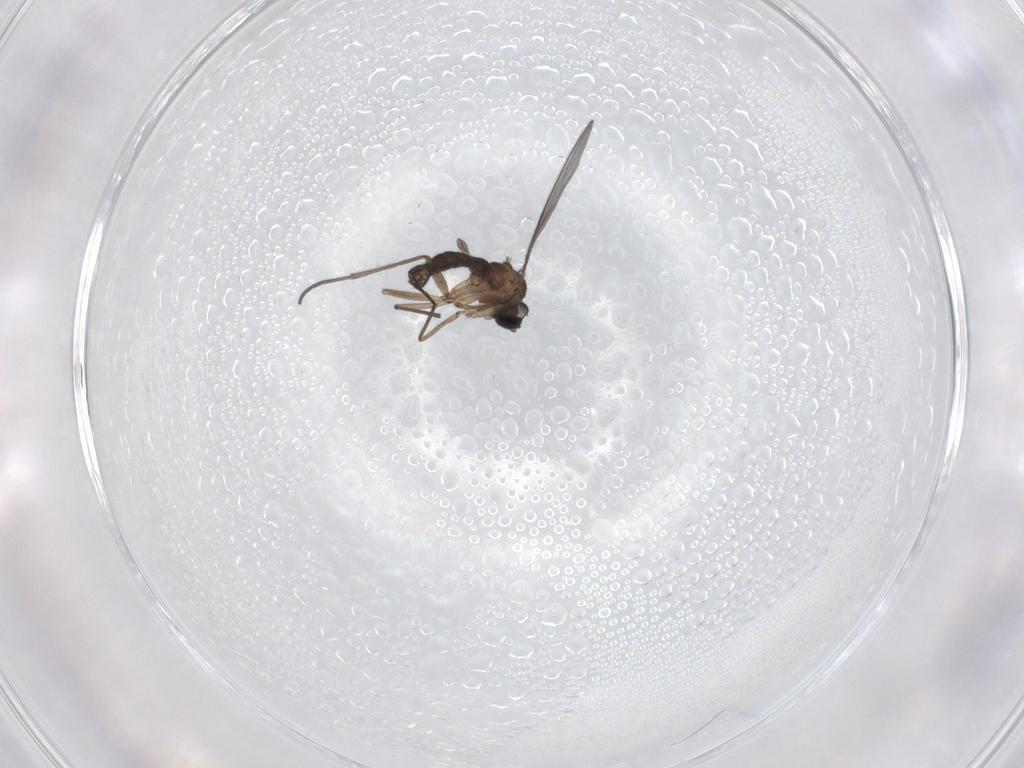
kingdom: Animalia
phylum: Arthropoda
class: Insecta
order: Diptera
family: Sciaridae
